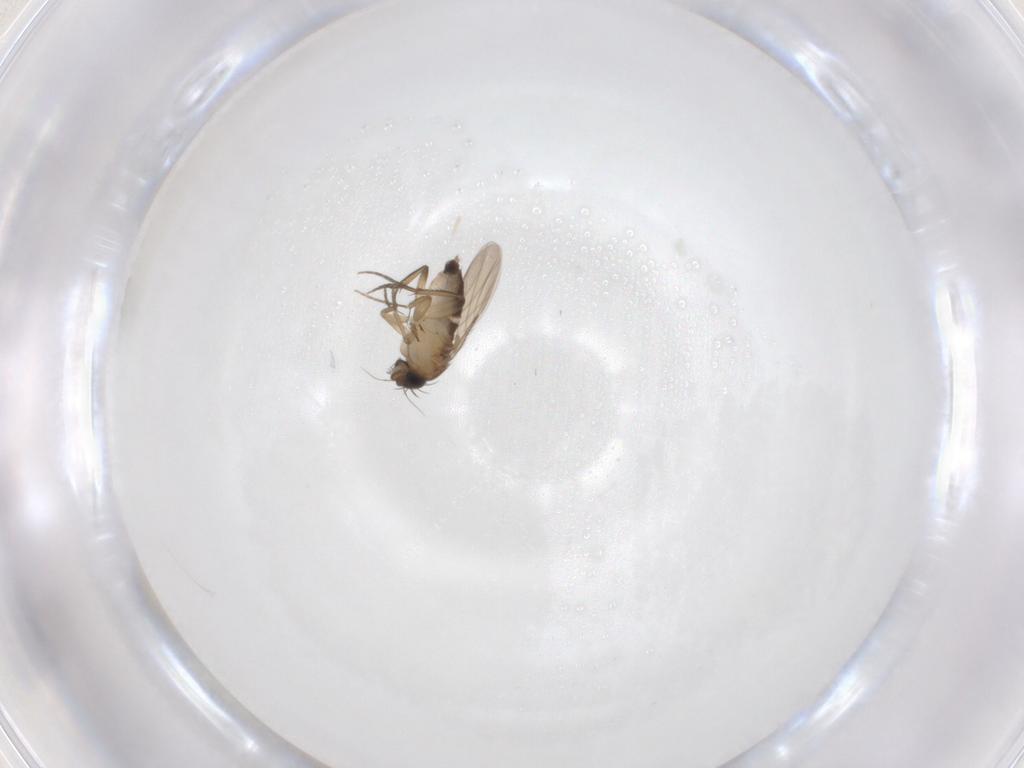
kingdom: Animalia
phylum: Arthropoda
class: Insecta
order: Diptera
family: Phoridae
